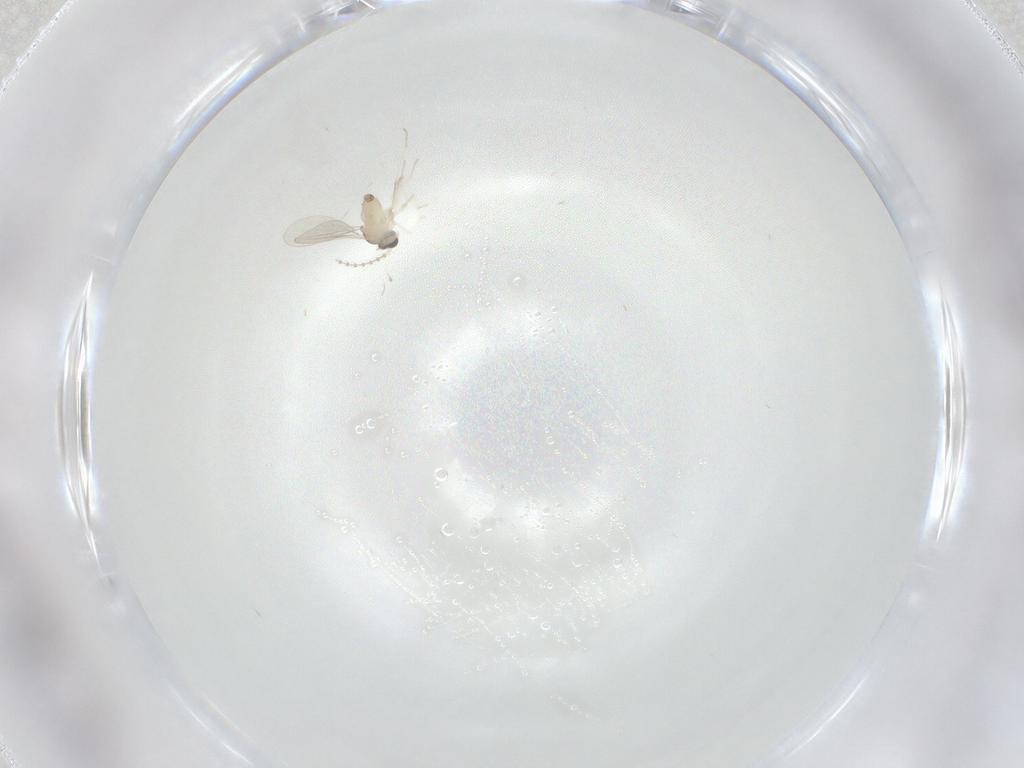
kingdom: Animalia
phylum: Arthropoda
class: Insecta
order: Diptera
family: Cecidomyiidae
